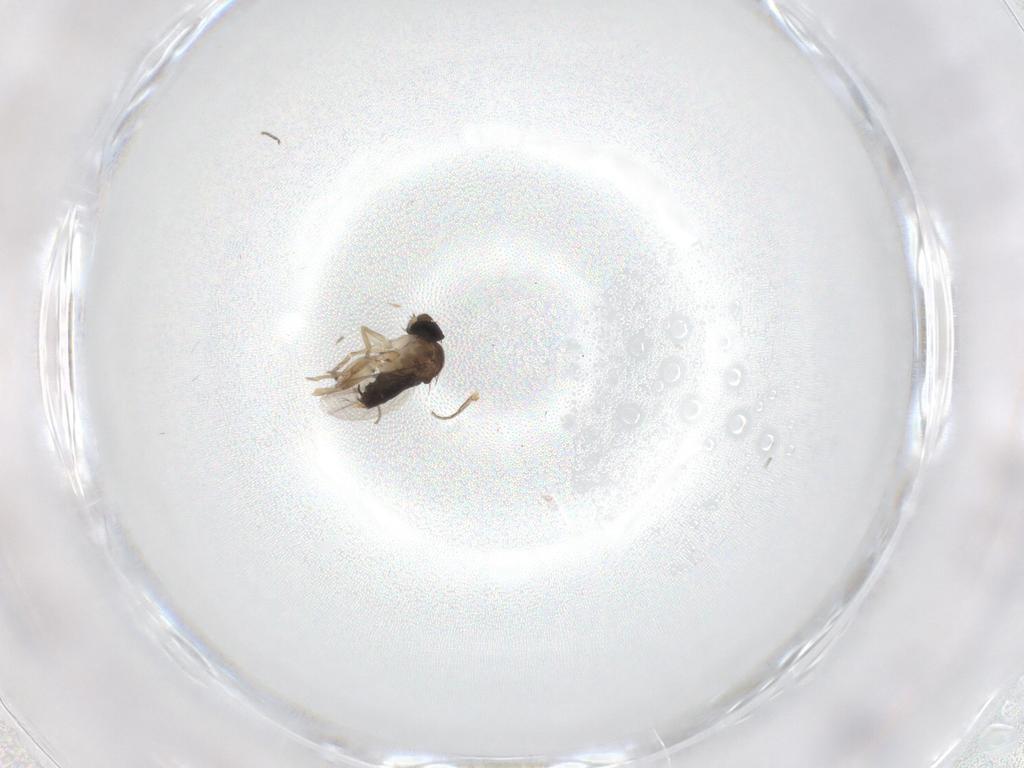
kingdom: Animalia
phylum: Arthropoda
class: Insecta
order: Diptera
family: Phoridae
